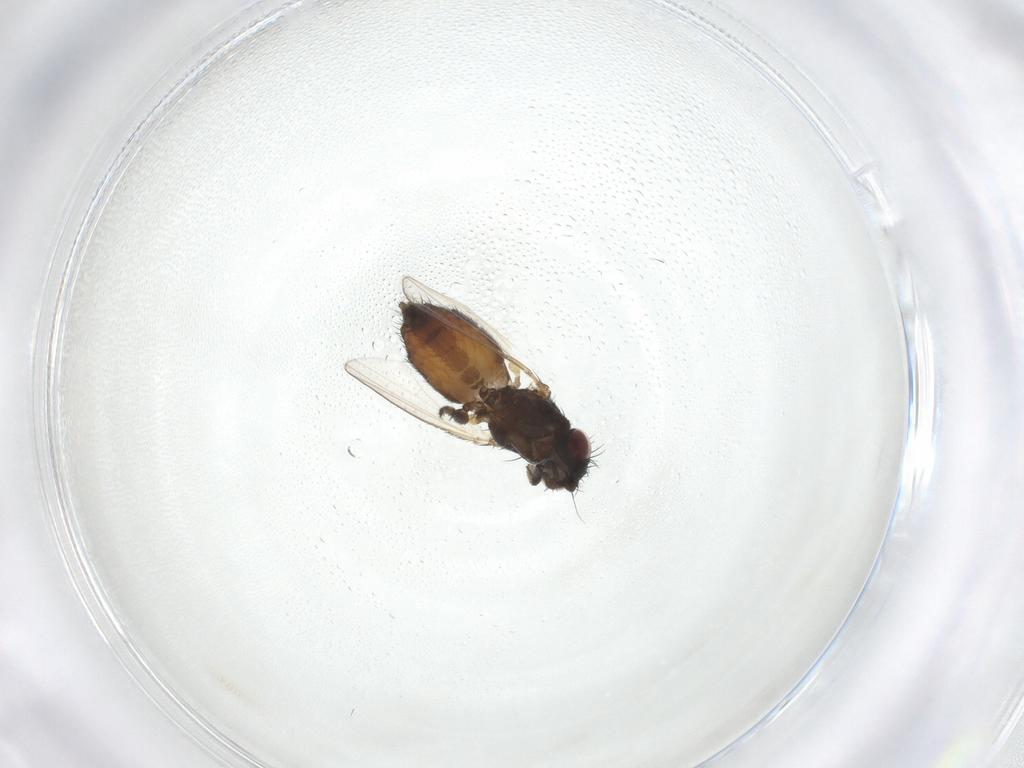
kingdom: Animalia
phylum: Arthropoda
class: Insecta
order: Diptera
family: Milichiidae
